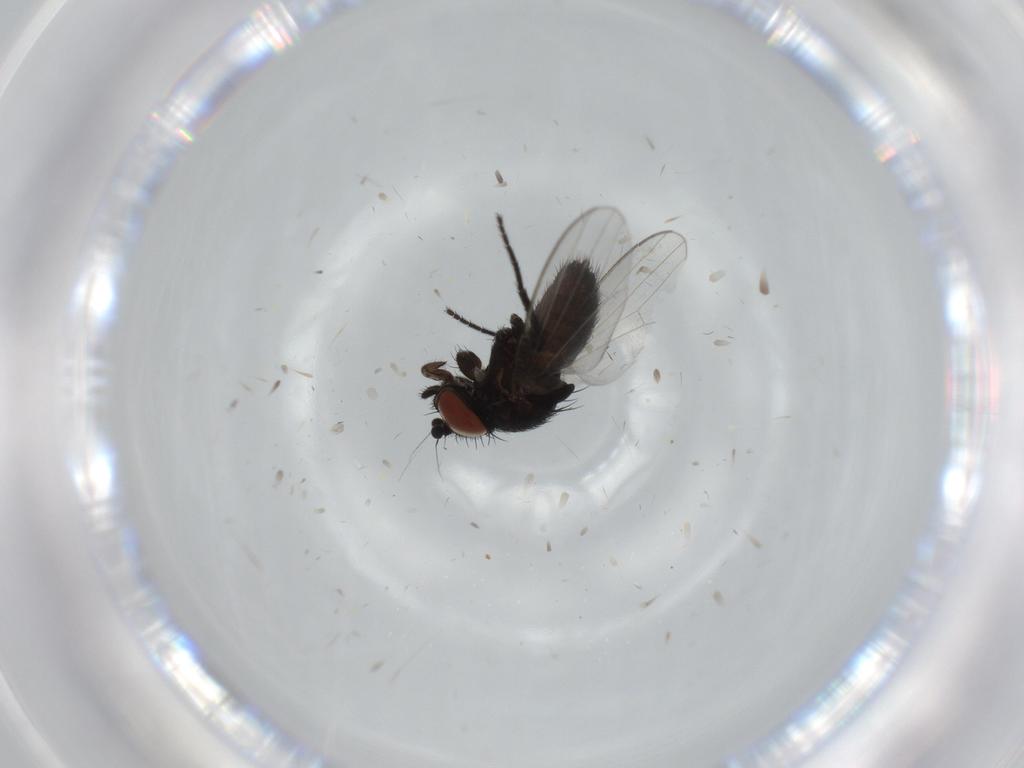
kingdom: Animalia
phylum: Arthropoda
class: Insecta
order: Diptera
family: Milichiidae
